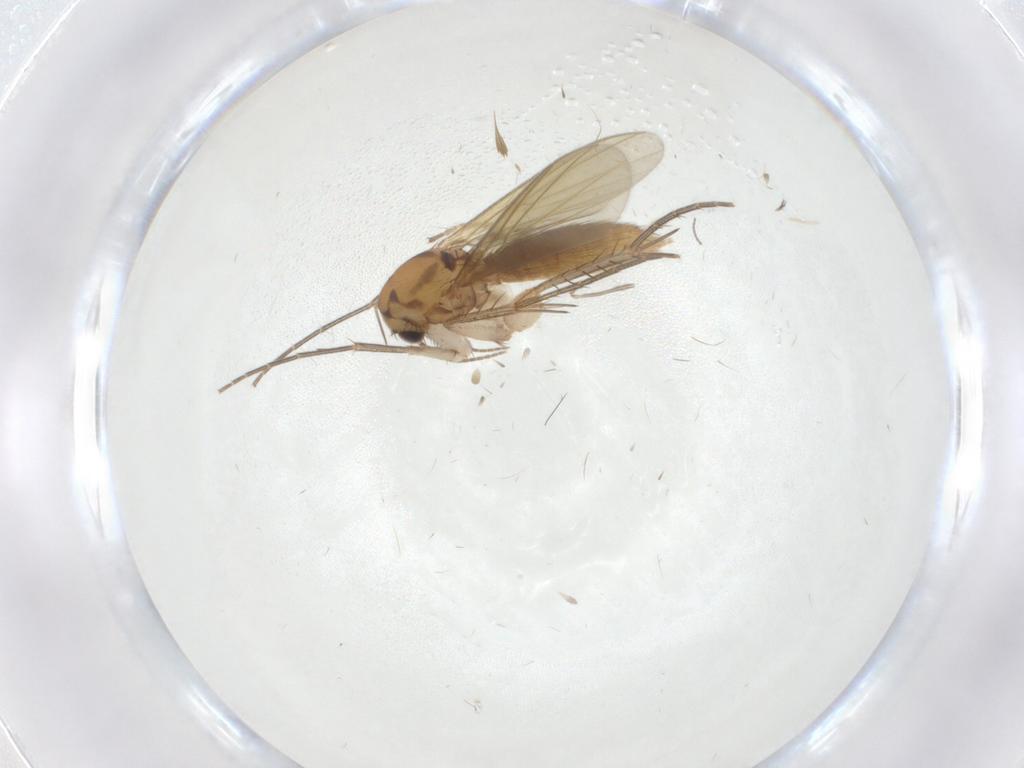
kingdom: Animalia
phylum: Arthropoda
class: Insecta
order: Diptera
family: Mycetophilidae
